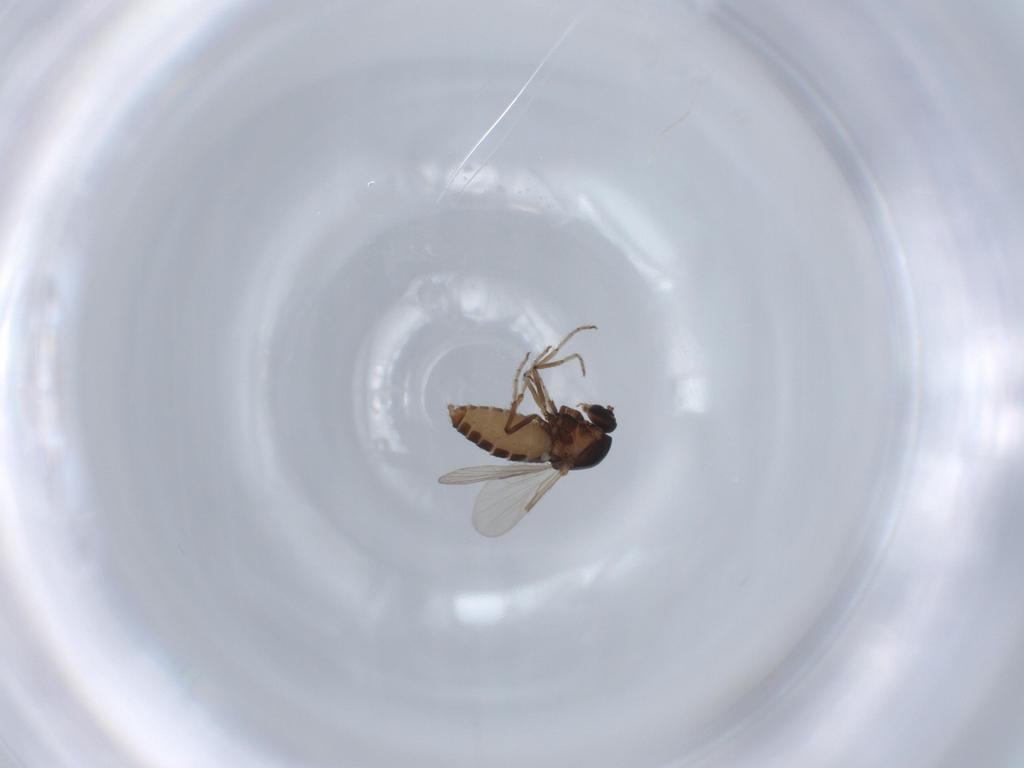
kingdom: Animalia
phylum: Arthropoda
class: Insecta
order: Diptera
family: Ceratopogonidae
